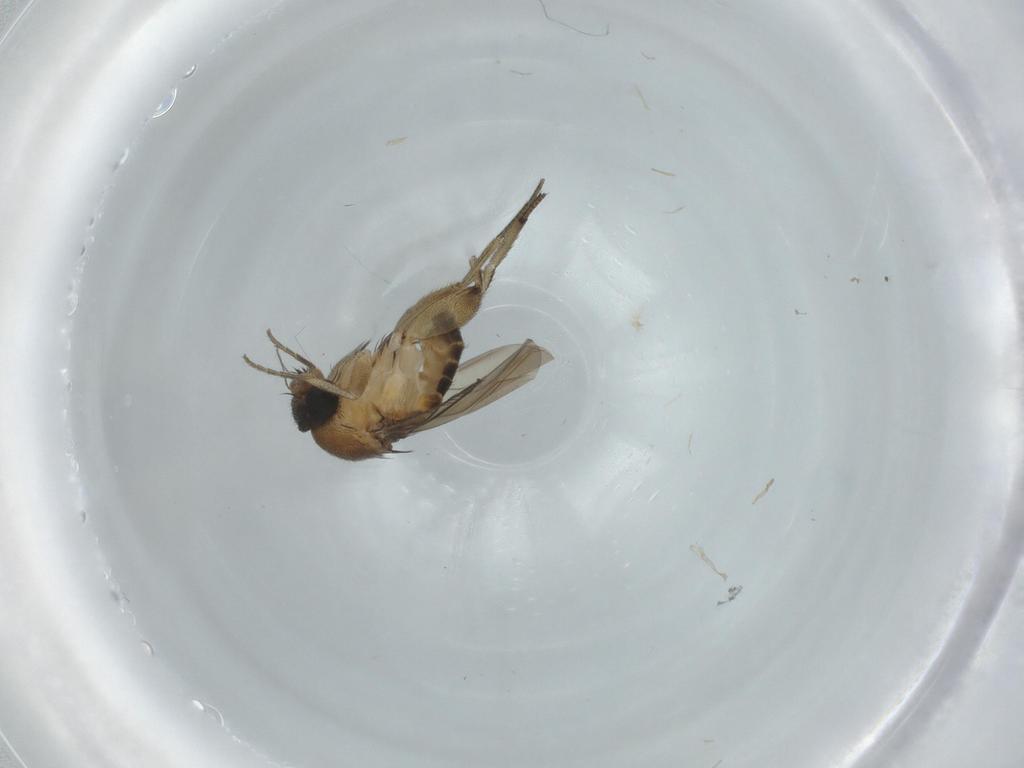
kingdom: Animalia
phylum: Arthropoda
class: Insecta
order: Diptera
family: Phoridae
